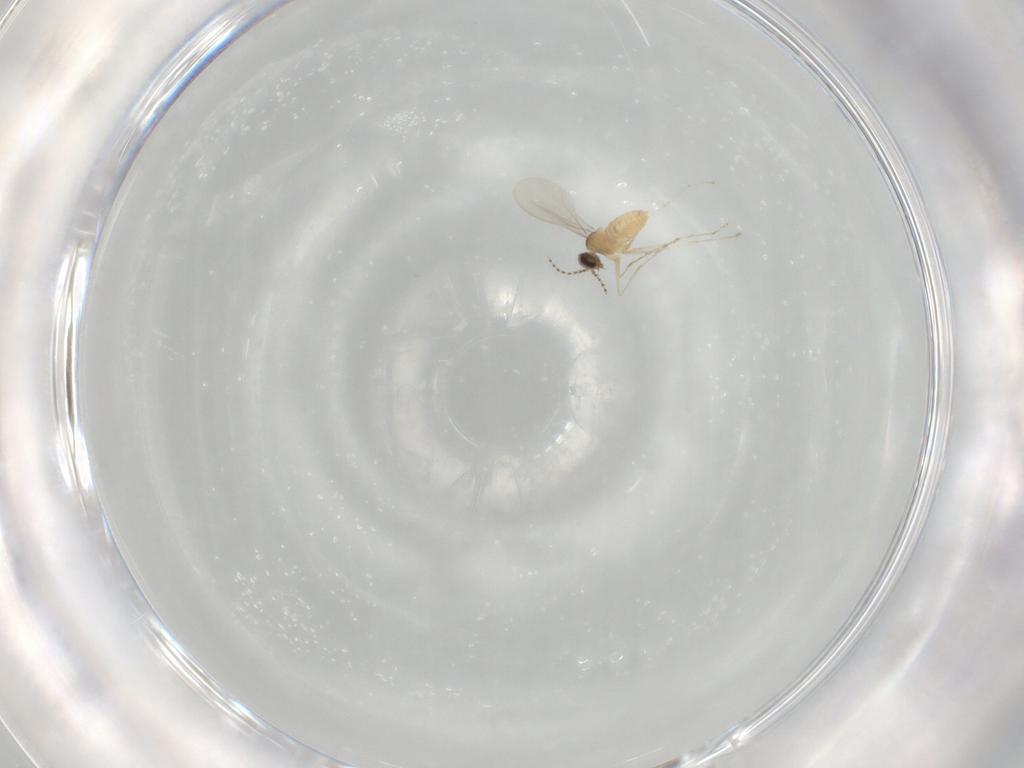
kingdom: Animalia
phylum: Arthropoda
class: Insecta
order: Diptera
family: Cecidomyiidae
